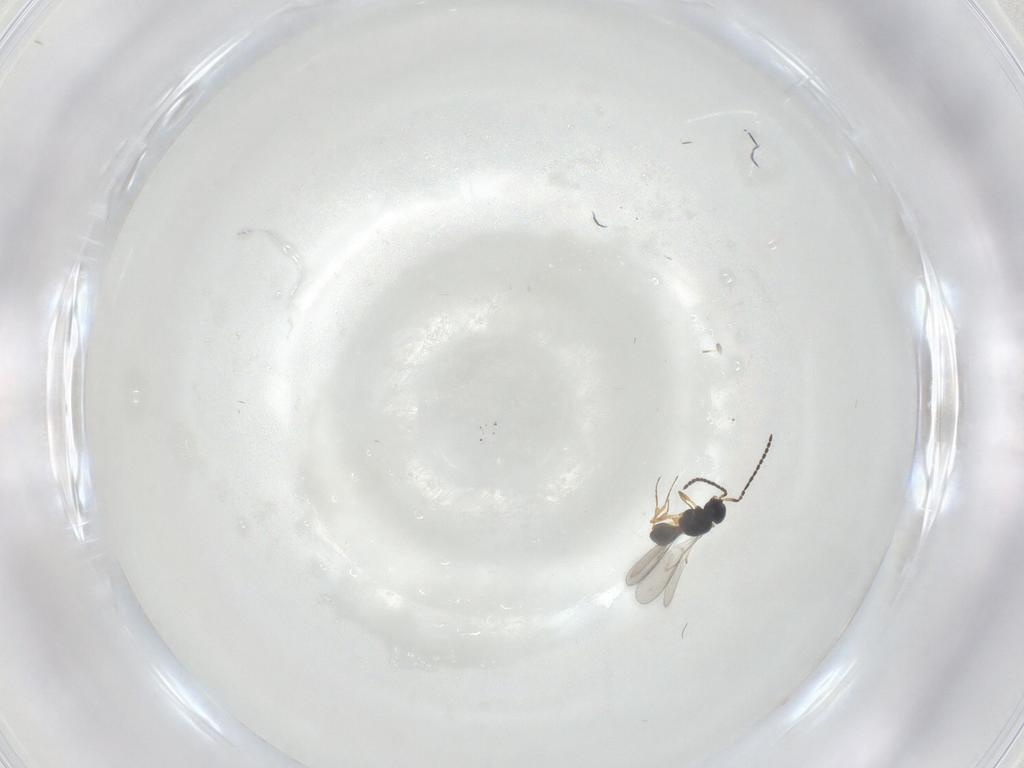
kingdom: Animalia
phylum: Arthropoda
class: Insecta
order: Hymenoptera
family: Scelionidae
